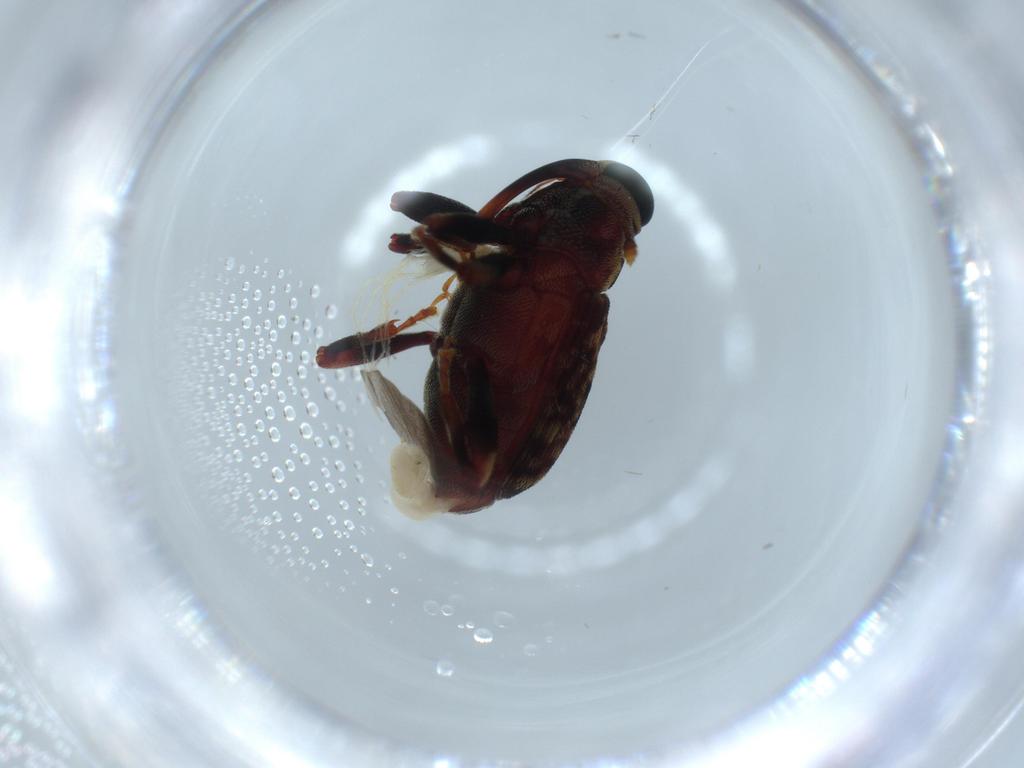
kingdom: Animalia
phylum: Arthropoda
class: Insecta
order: Coleoptera
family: Curculionidae
